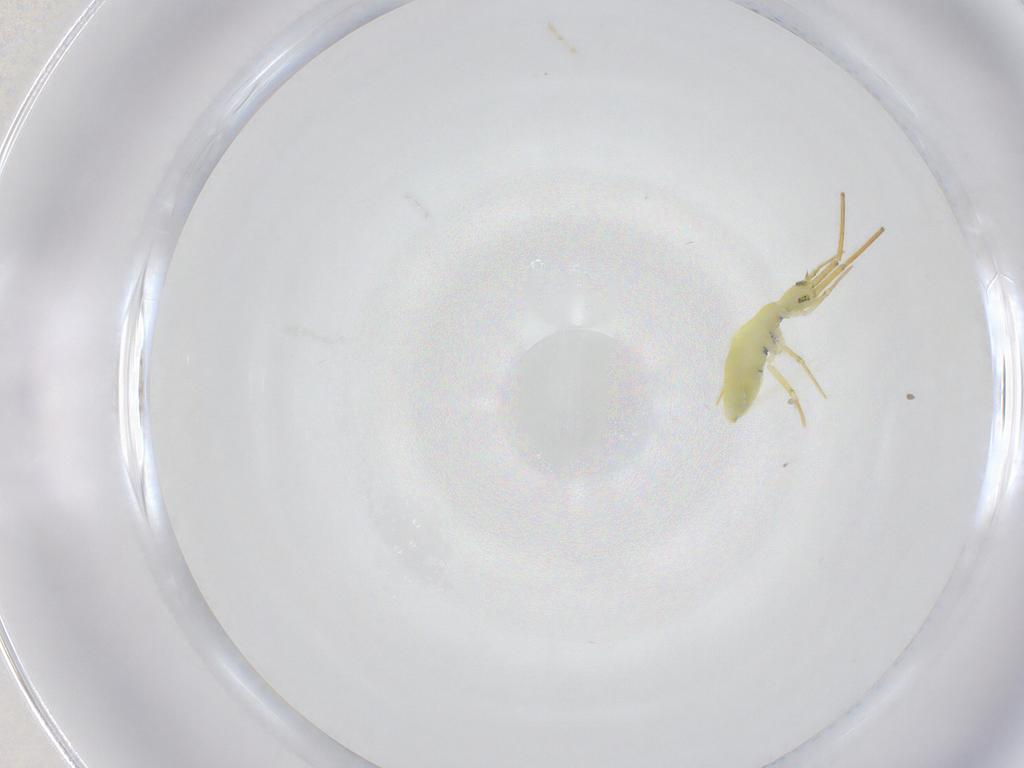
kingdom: Animalia
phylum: Arthropoda
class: Collembola
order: Entomobryomorpha
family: Entomobryidae
